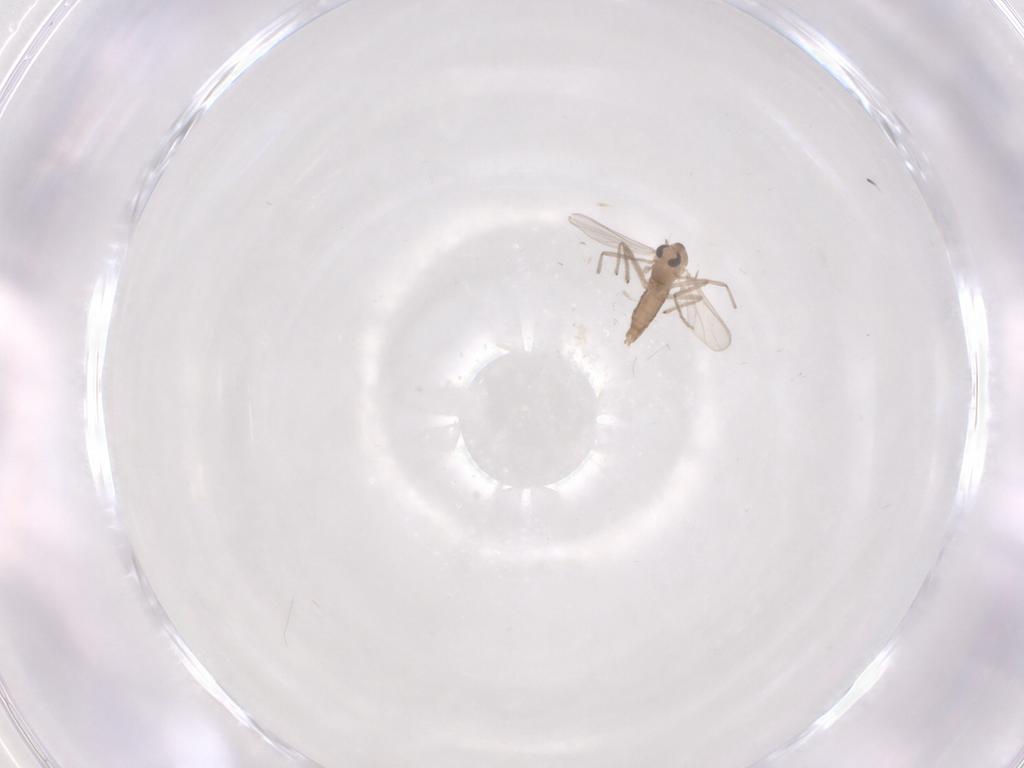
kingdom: Animalia
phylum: Arthropoda
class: Insecta
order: Diptera
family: Chironomidae
